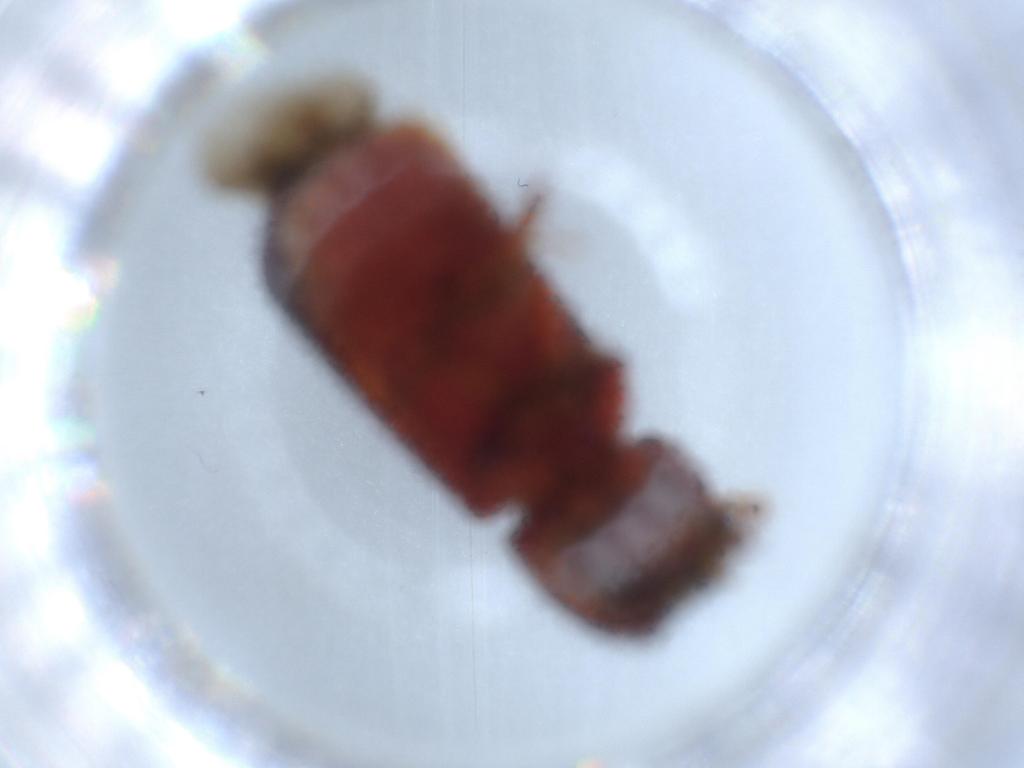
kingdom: Animalia
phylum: Arthropoda
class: Insecta
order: Coleoptera
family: Bostrichidae
